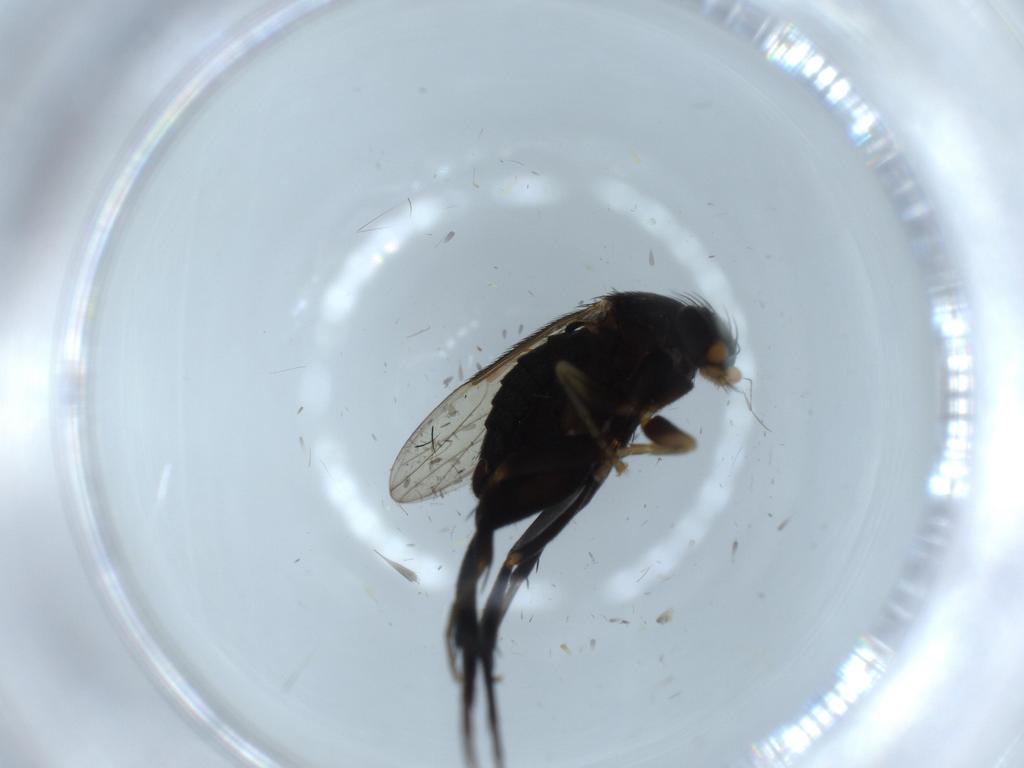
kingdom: Animalia
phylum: Arthropoda
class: Insecta
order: Diptera
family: Phoridae
